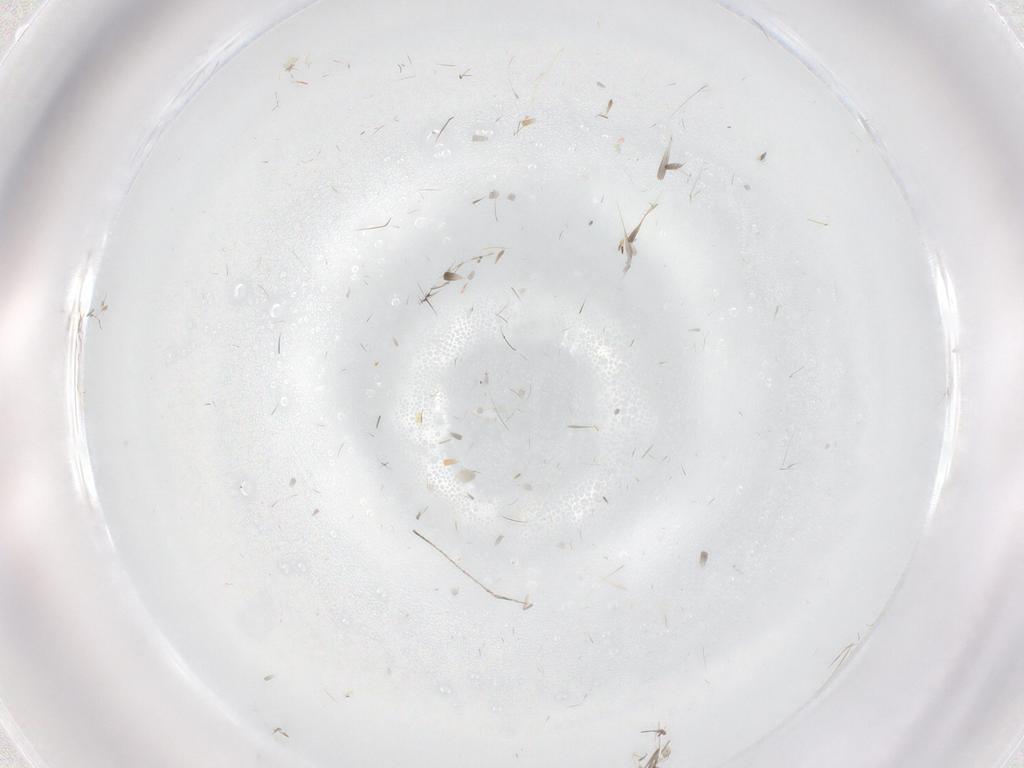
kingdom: Animalia
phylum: Arthropoda
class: Insecta
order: Diptera
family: Cecidomyiidae
